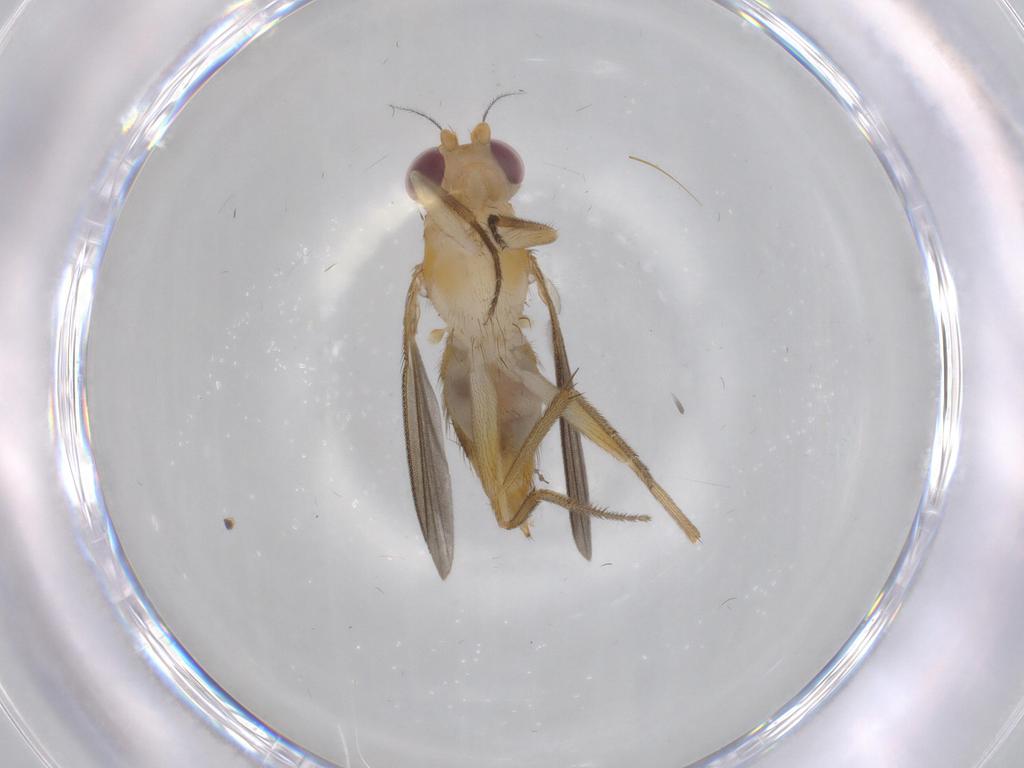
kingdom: Animalia
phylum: Arthropoda
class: Insecta
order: Diptera
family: Clusiidae
